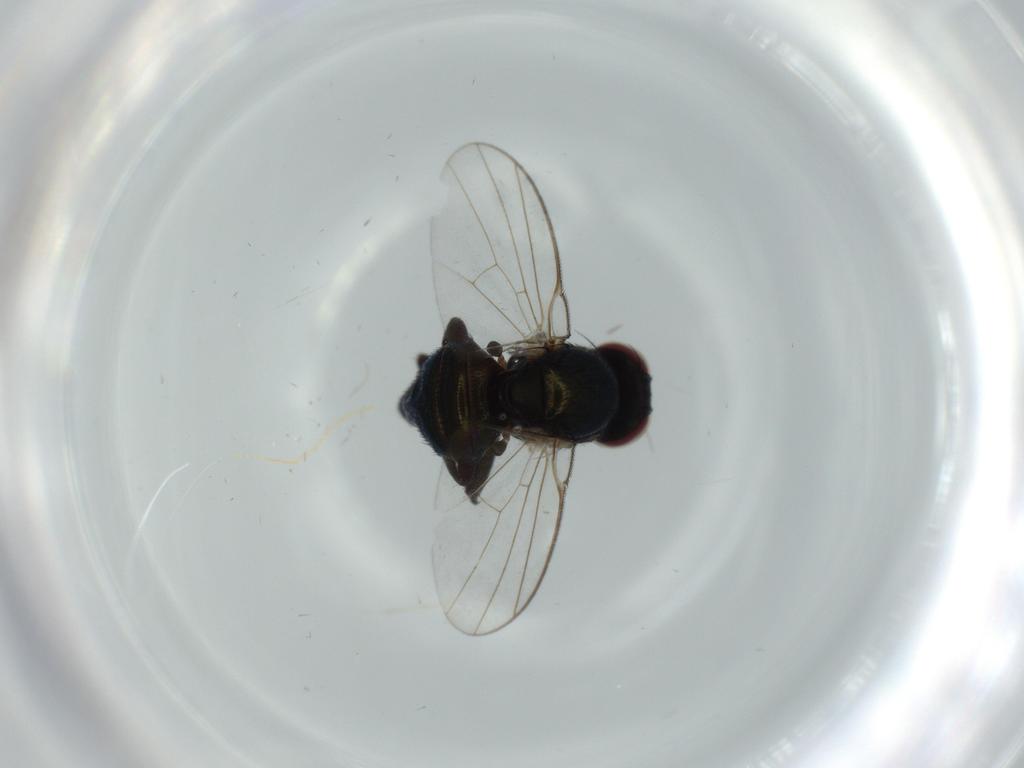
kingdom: Animalia
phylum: Arthropoda
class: Insecta
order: Diptera
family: Agromyzidae
